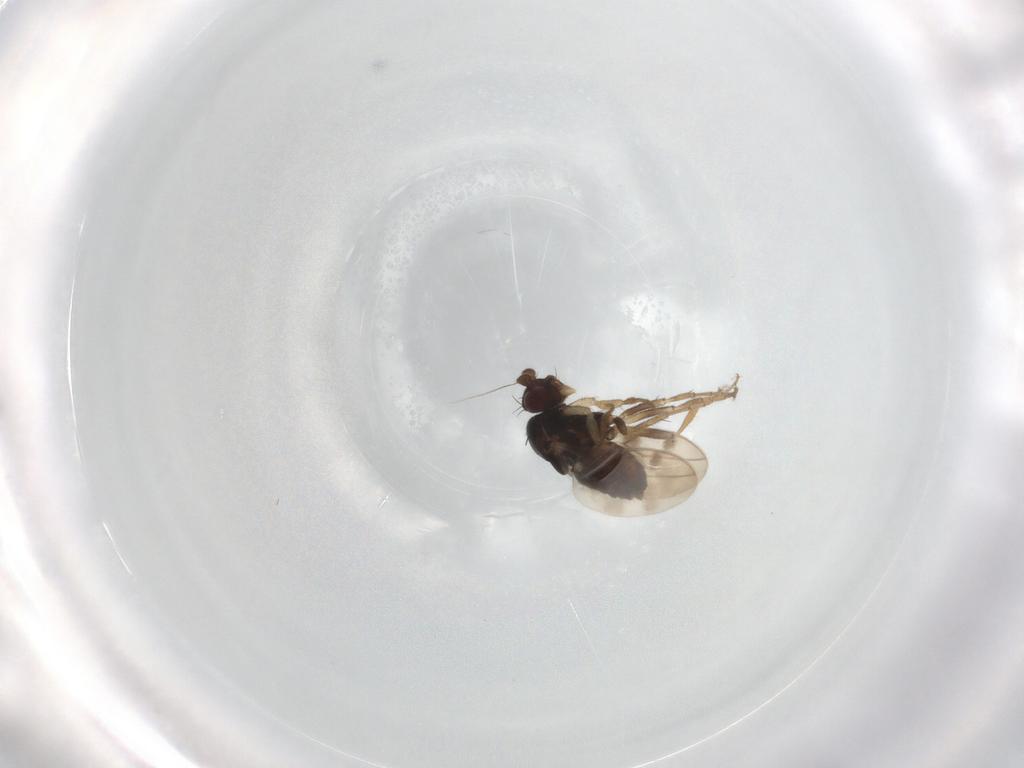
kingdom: Animalia
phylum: Arthropoda
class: Insecta
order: Diptera
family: Sphaeroceridae
